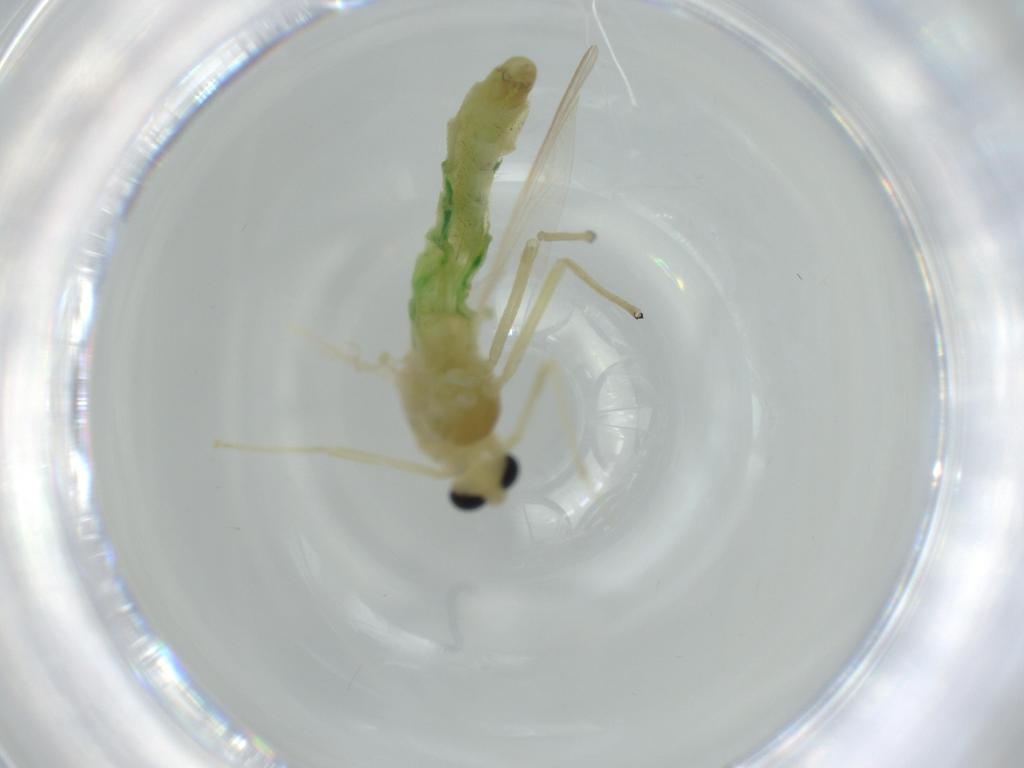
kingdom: Animalia
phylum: Arthropoda
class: Insecta
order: Diptera
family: Chironomidae
